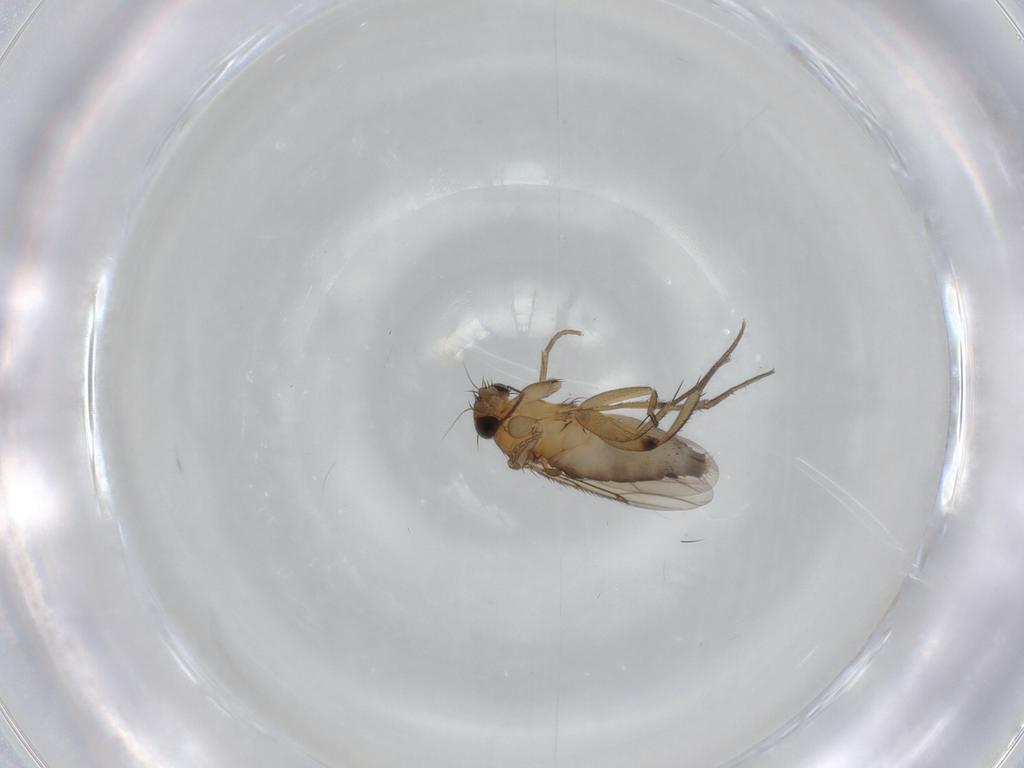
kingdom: Animalia
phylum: Arthropoda
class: Insecta
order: Diptera
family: Phoridae
